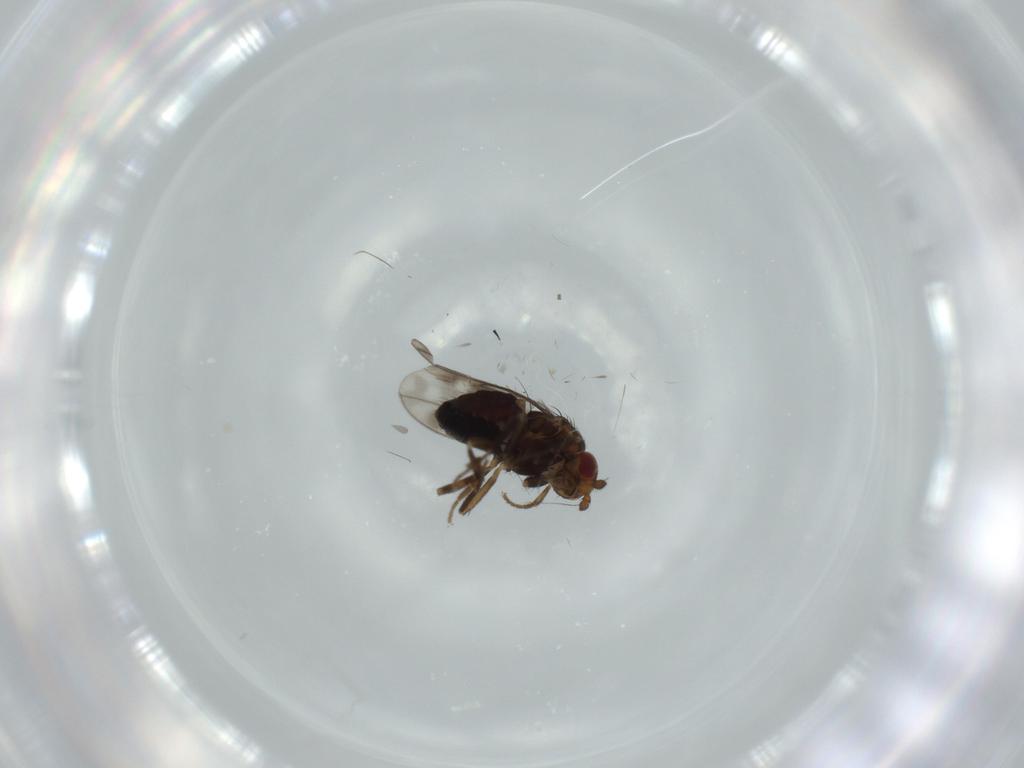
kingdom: Animalia
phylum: Arthropoda
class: Insecta
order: Diptera
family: Sphaeroceridae
